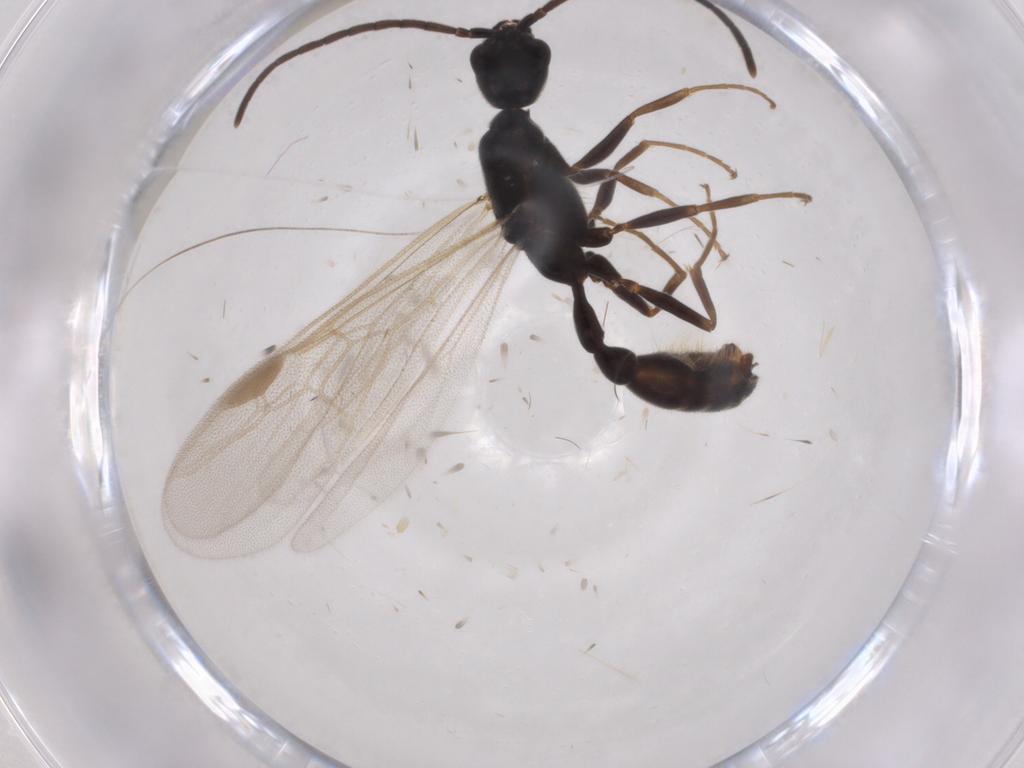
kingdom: Animalia
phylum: Arthropoda
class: Insecta
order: Hymenoptera
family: Formicidae
